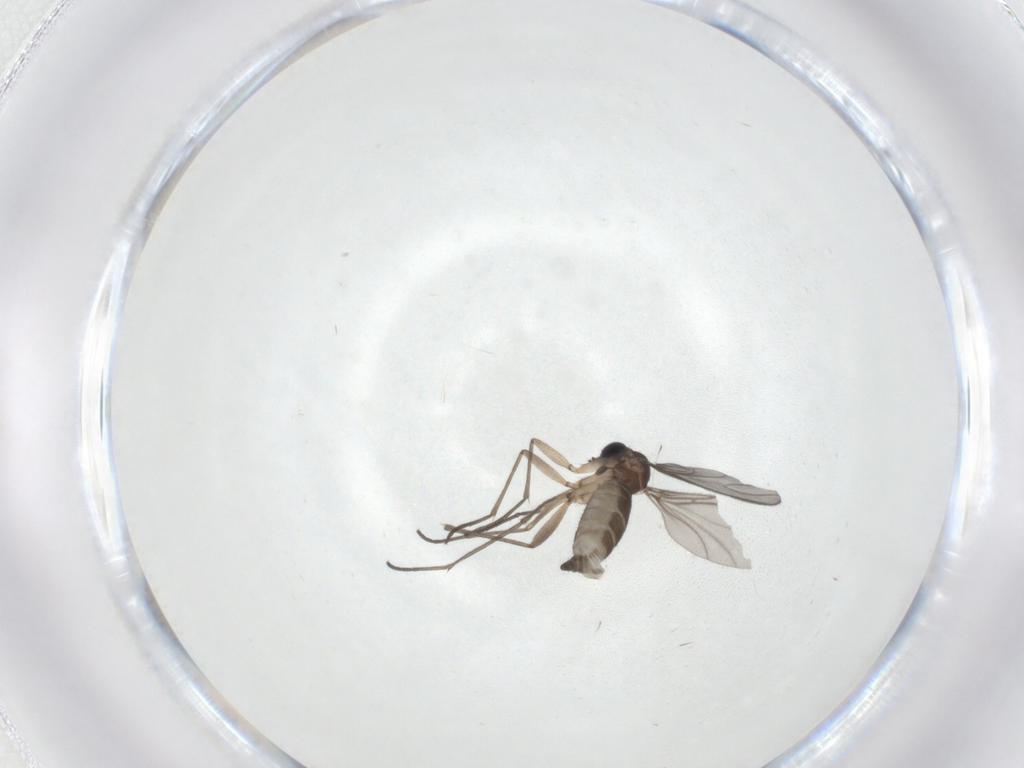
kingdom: Animalia
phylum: Arthropoda
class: Insecta
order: Diptera
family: Sciaridae
